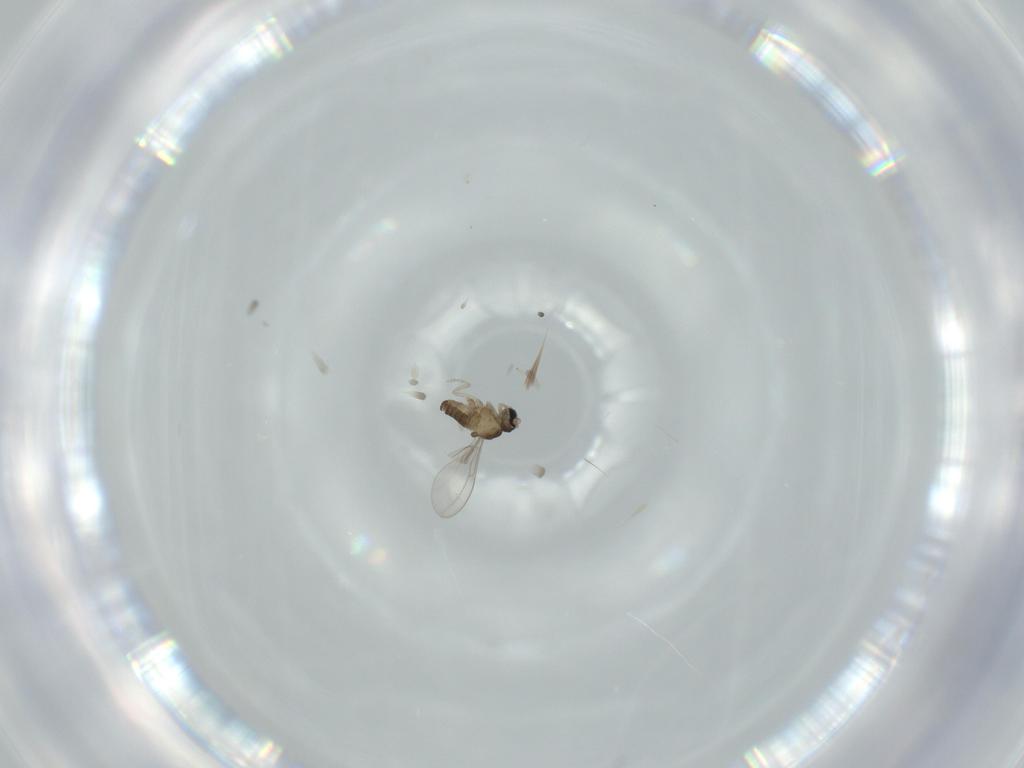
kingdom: Animalia
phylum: Arthropoda
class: Insecta
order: Diptera
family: Cecidomyiidae
